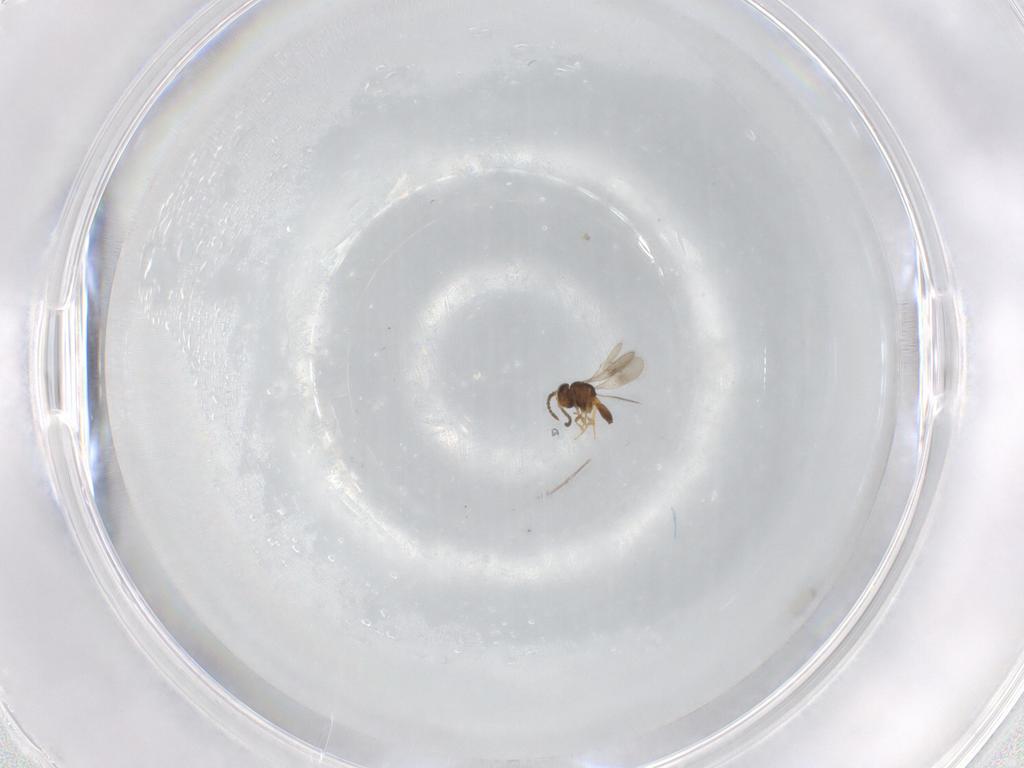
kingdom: Animalia
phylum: Arthropoda
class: Insecta
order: Hymenoptera
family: Scelionidae
